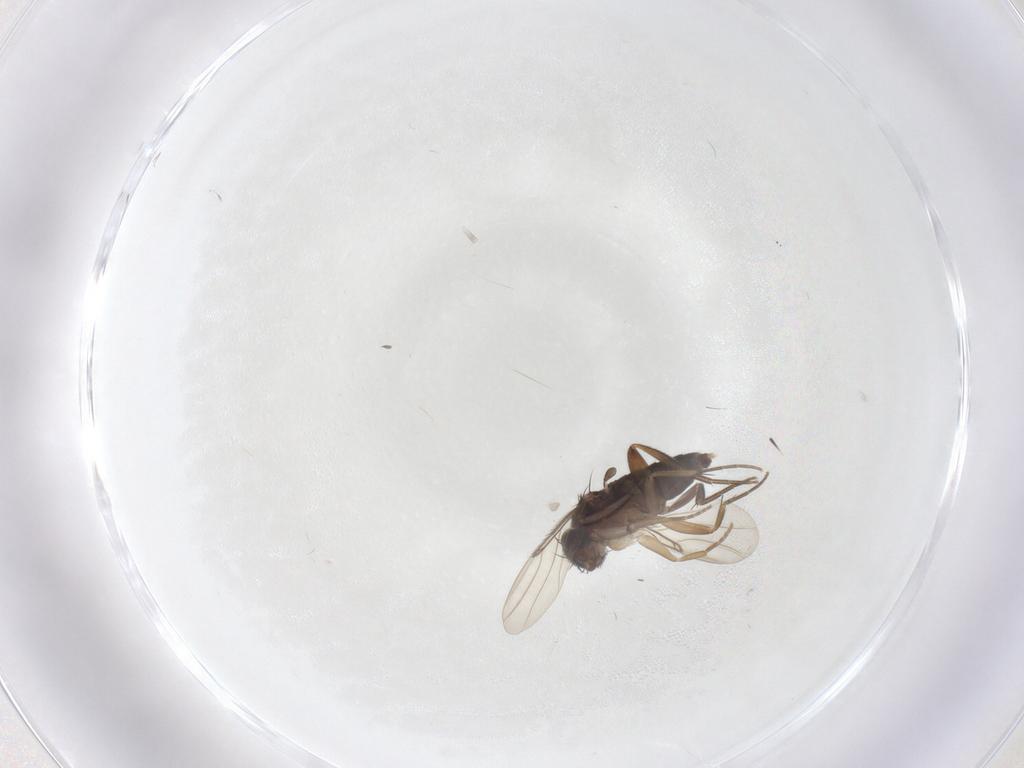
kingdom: Animalia
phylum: Arthropoda
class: Insecta
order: Diptera
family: Phoridae
